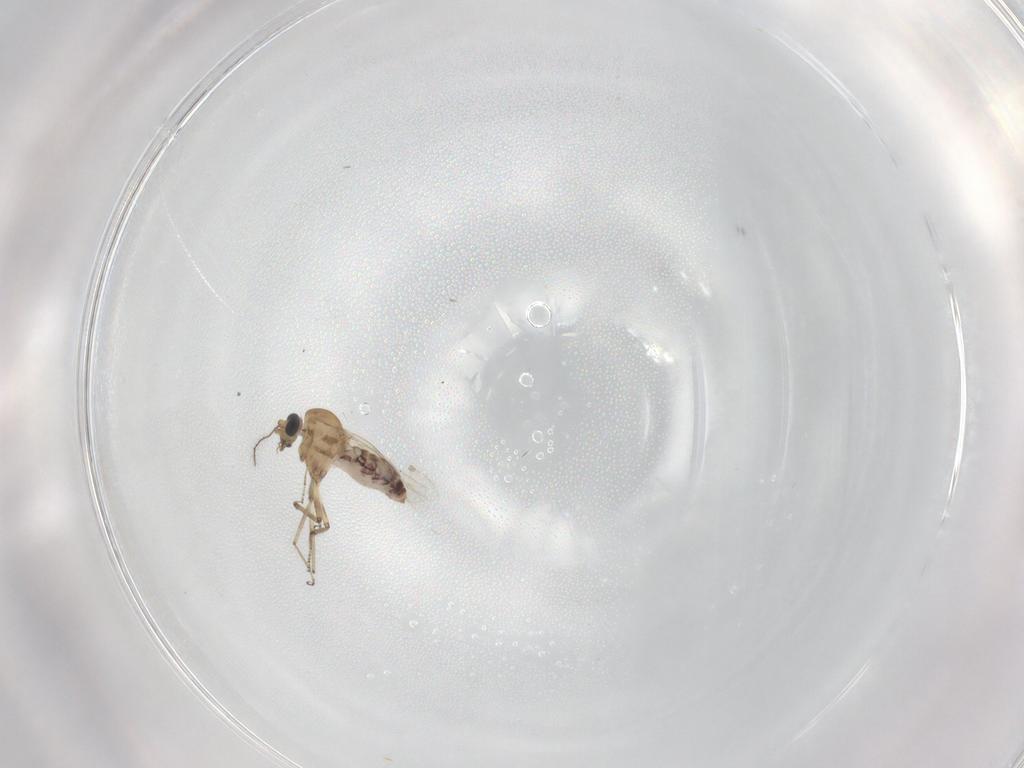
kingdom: Animalia
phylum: Arthropoda
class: Insecta
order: Diptera
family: Ceratopogonidae
